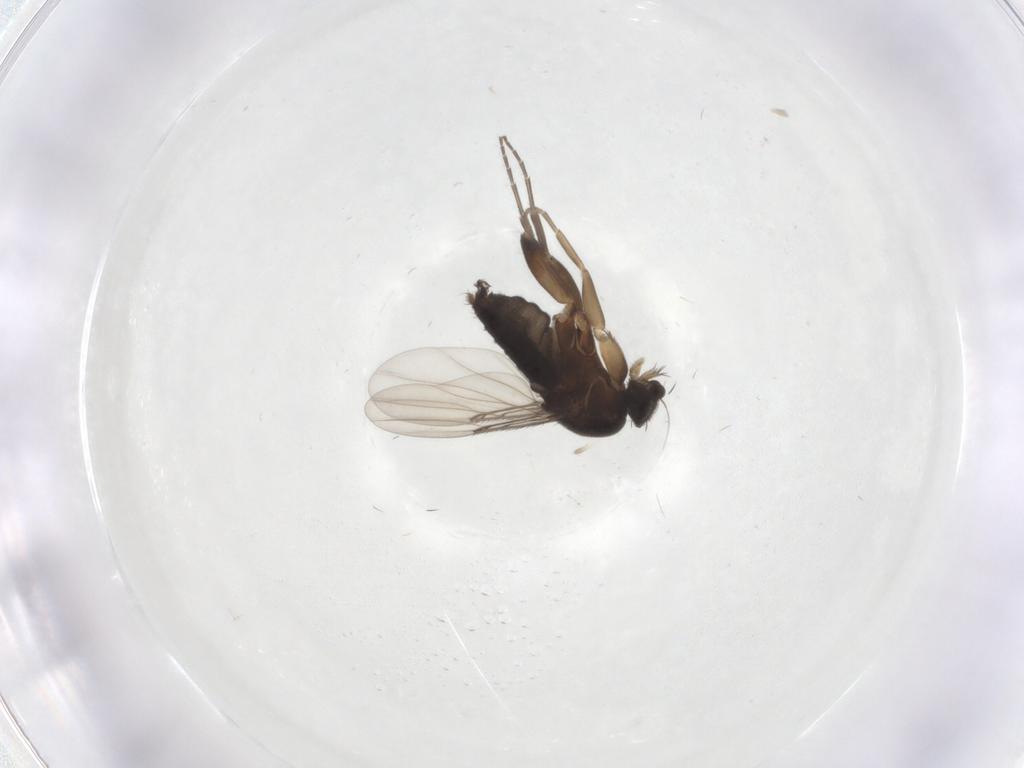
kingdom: Animalia
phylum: Arthropoda
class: Insecta
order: Diptera
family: Phoridae
